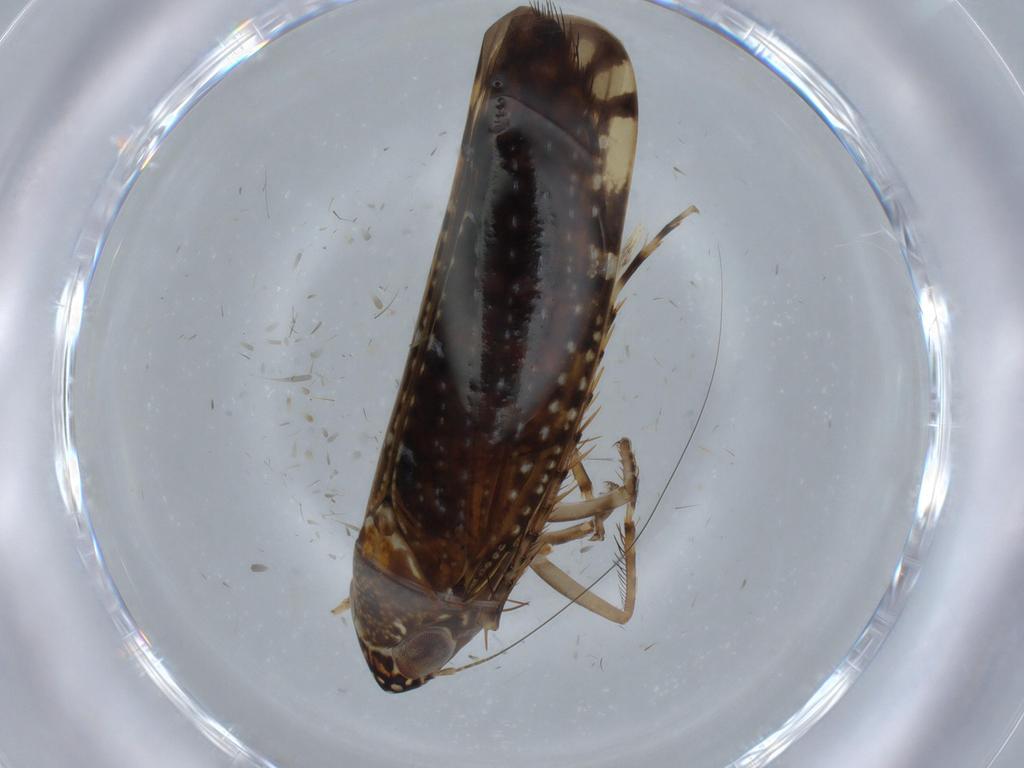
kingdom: Animalia
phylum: Arthropoda
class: Insecta
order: Hemiptera
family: Cicadellidae
